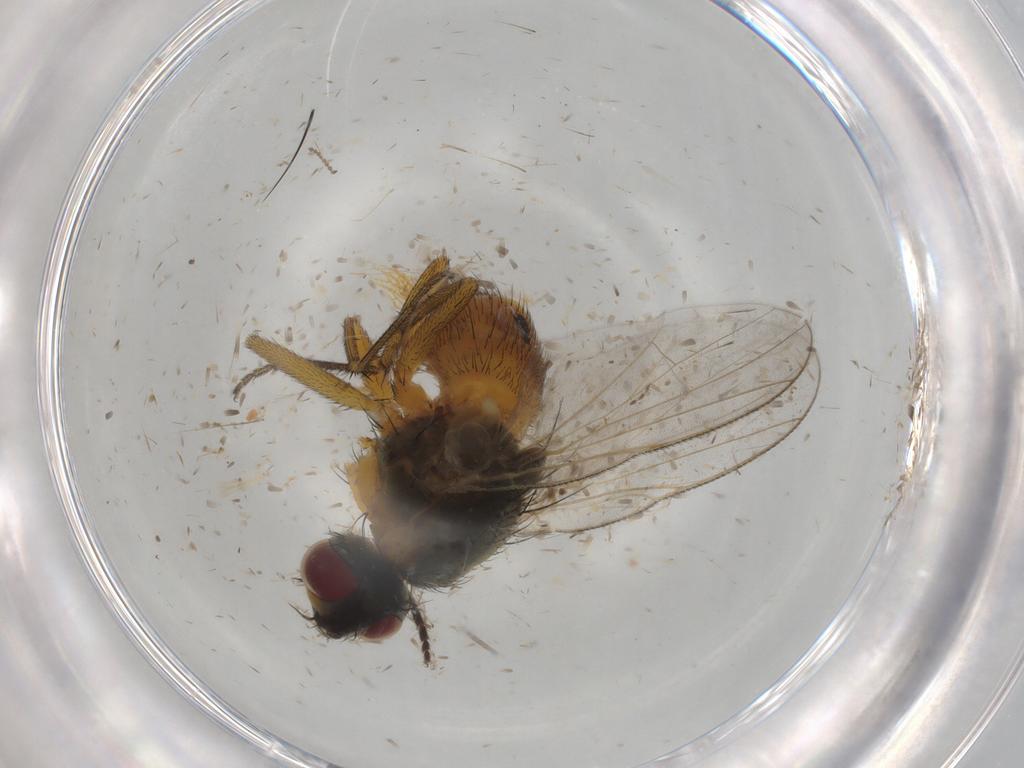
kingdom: Animalia
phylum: Arthropoda
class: Insecta
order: Diptera
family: Muscidae
